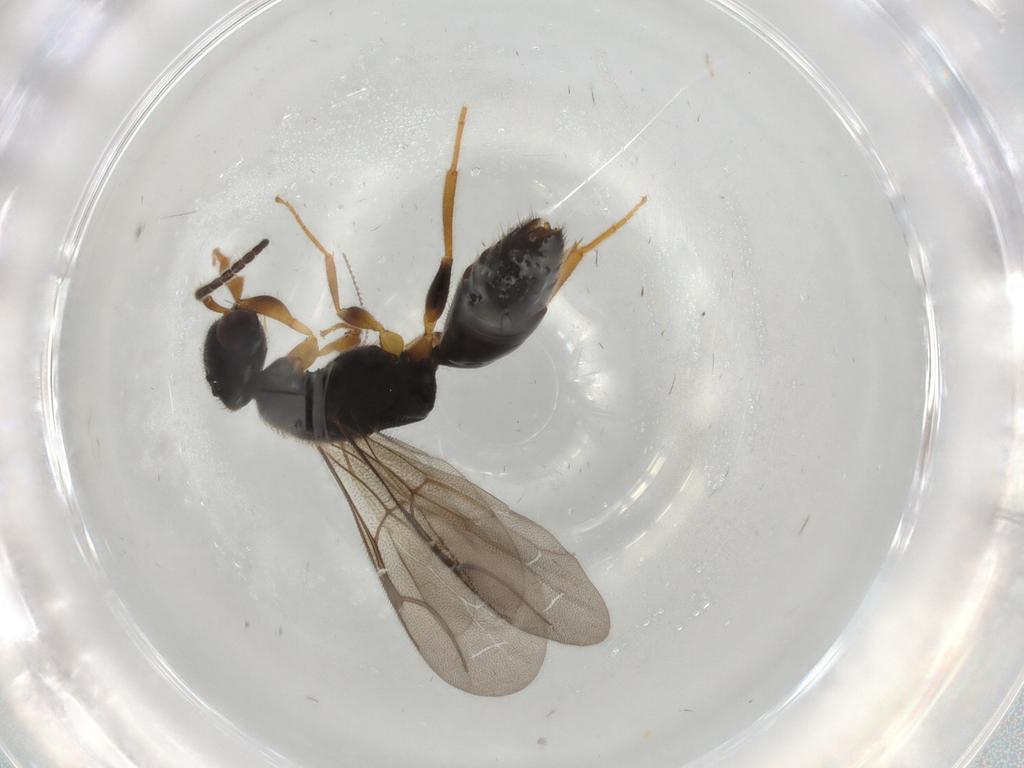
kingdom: Animalia
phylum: Arthropoda
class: Insecta
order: Hymenoptera
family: Bethylidae
